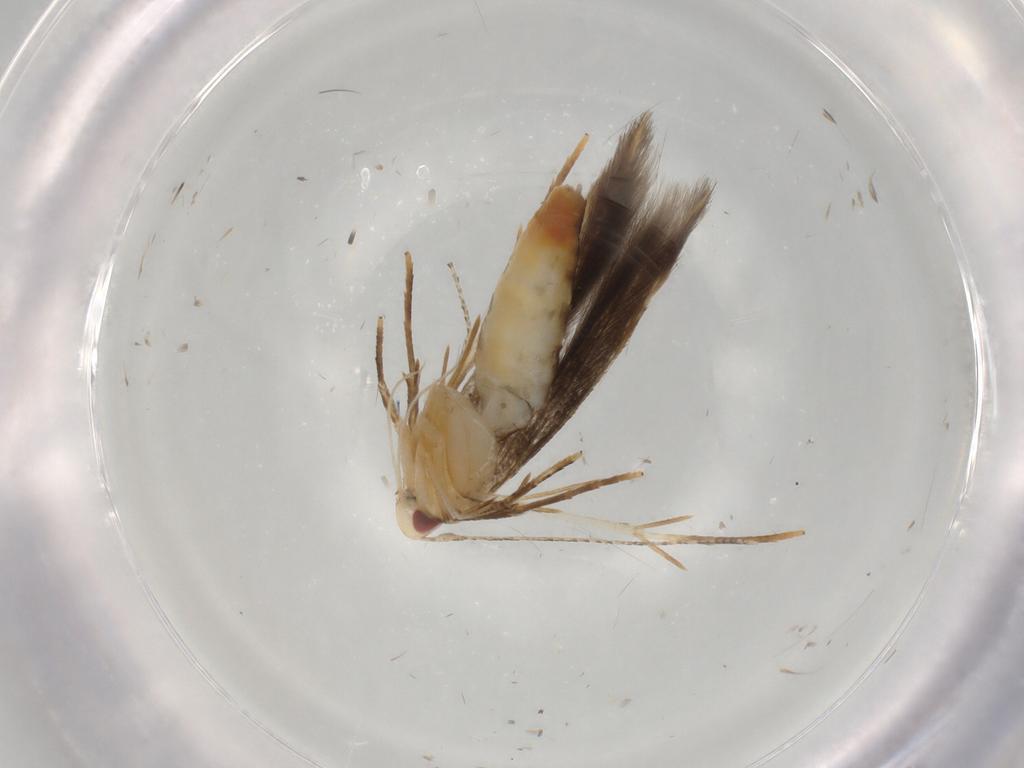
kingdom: Animalia
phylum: Arthropoda
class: Insecta
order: Lepidoptera
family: Gelechiidae
